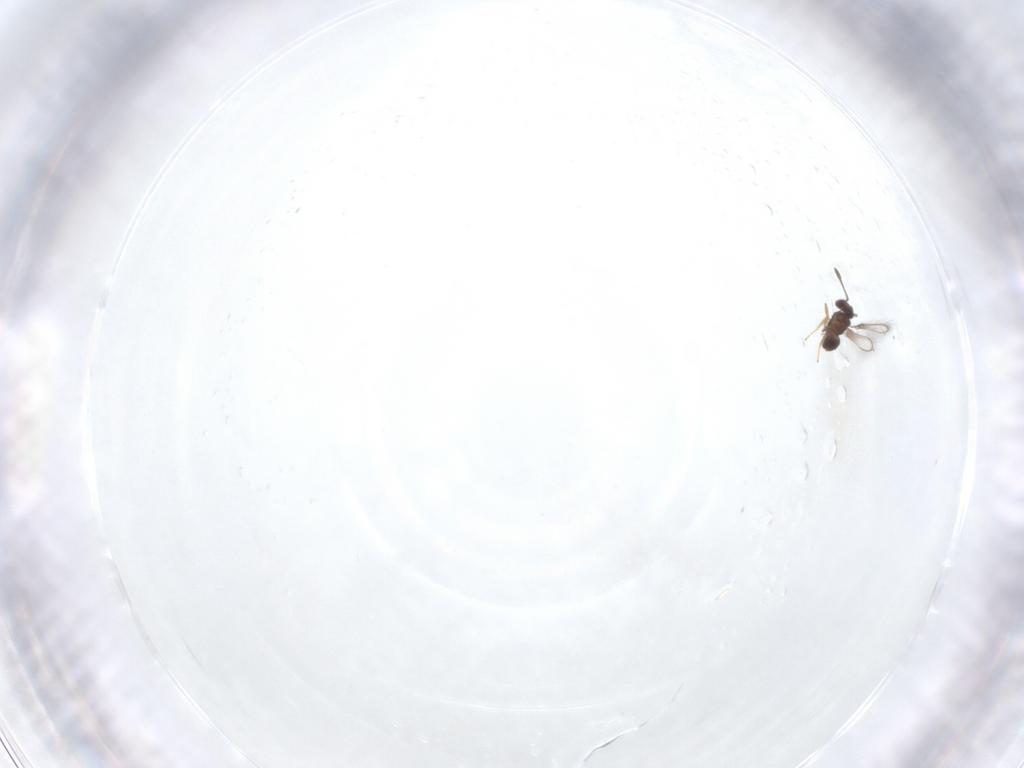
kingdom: Animalia
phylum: Arthropoda
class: Insecta
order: Hymenoptera
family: Mymaridae
